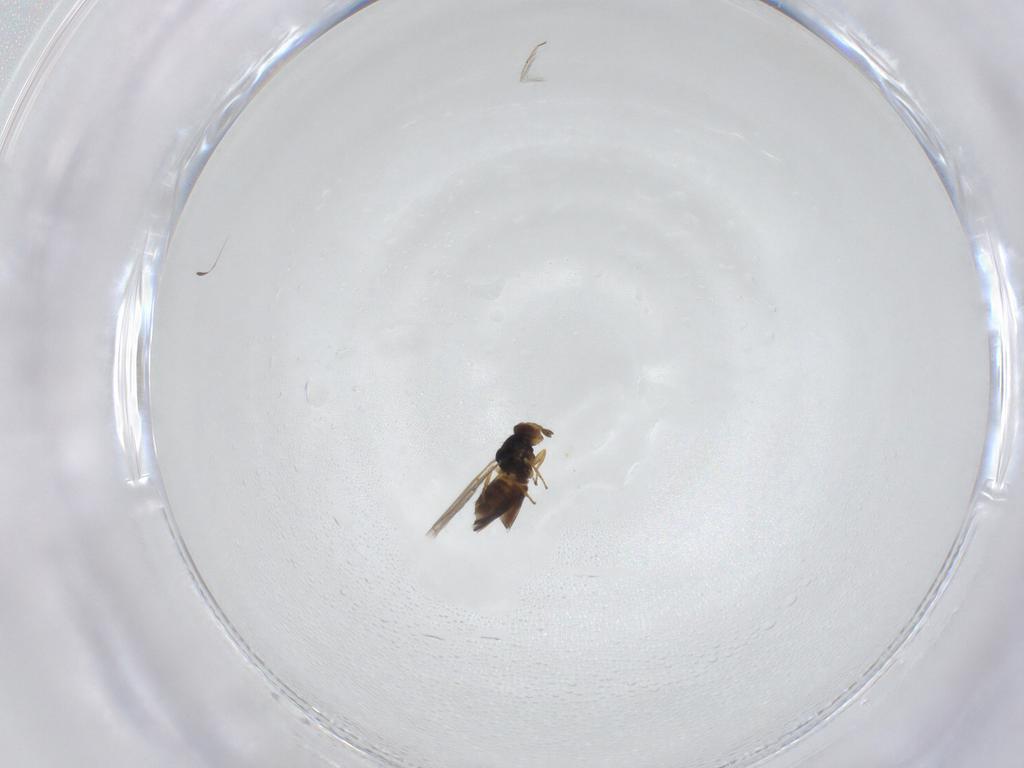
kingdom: Animalia
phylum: Arthropoda
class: Insecta
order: Hymenoptera
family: Eulophidae
